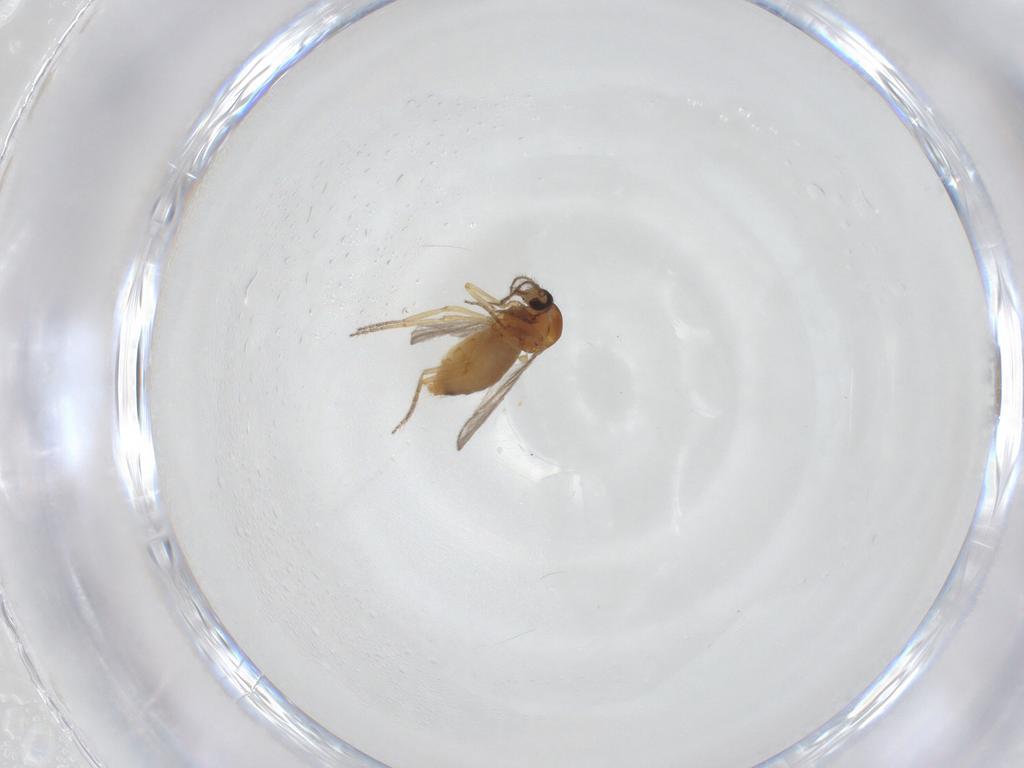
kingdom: Animalia
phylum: Arthropoda
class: Insecta
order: Diptera
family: Ceratopogonidae
